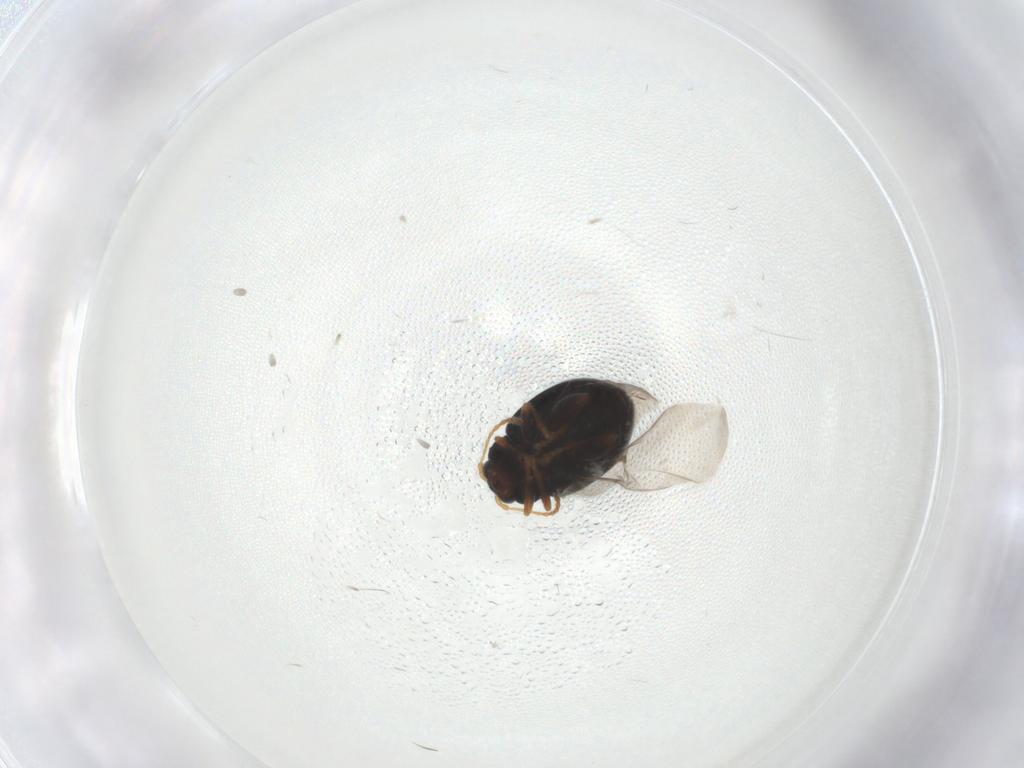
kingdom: Animalia
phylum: Arthropoda
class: Insecta
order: Coleoptera
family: Chrysomelidae
